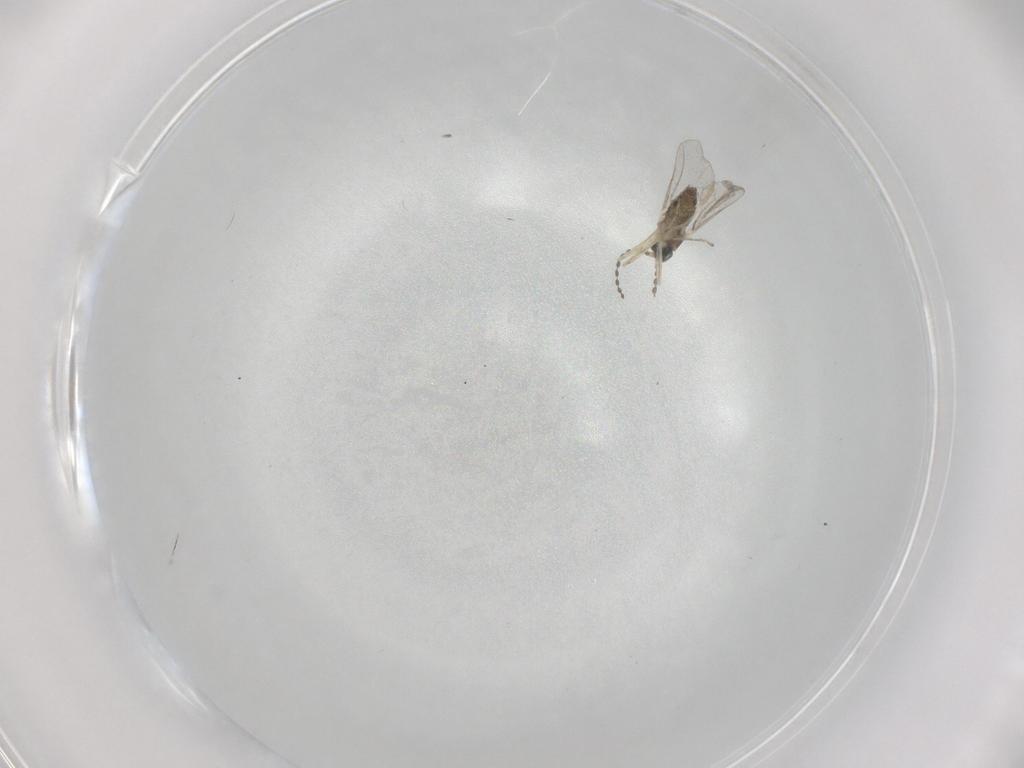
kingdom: Animalia
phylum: Arthropoda
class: Insecta
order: Diptera
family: Cecidomyiidae
